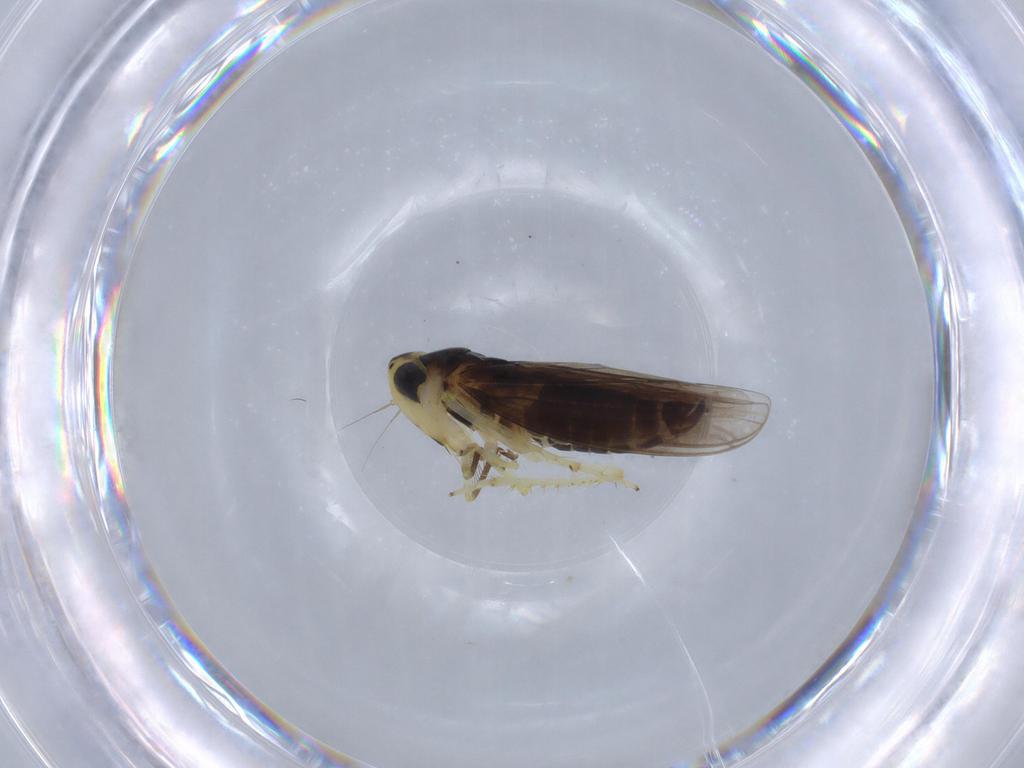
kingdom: Animalia
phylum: Arthropoda
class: Insecta
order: Hemiptera
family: Cicadellidae
